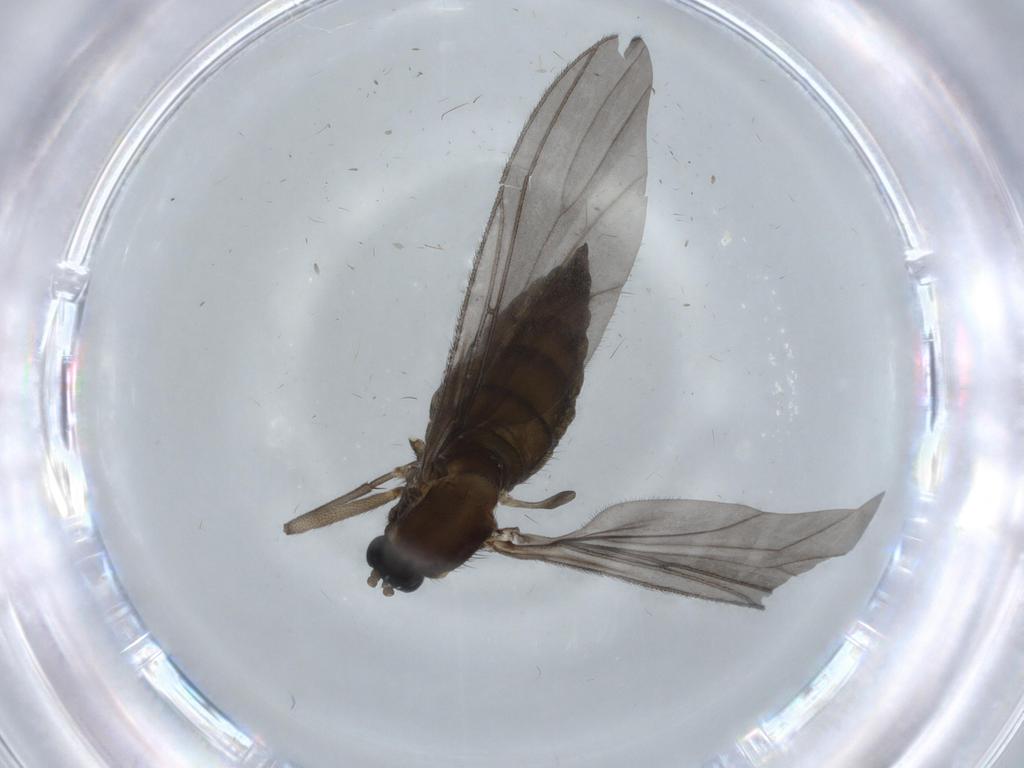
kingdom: Animalia
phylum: Arthropoda
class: Insecta
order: Diptera
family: Sciaridae
